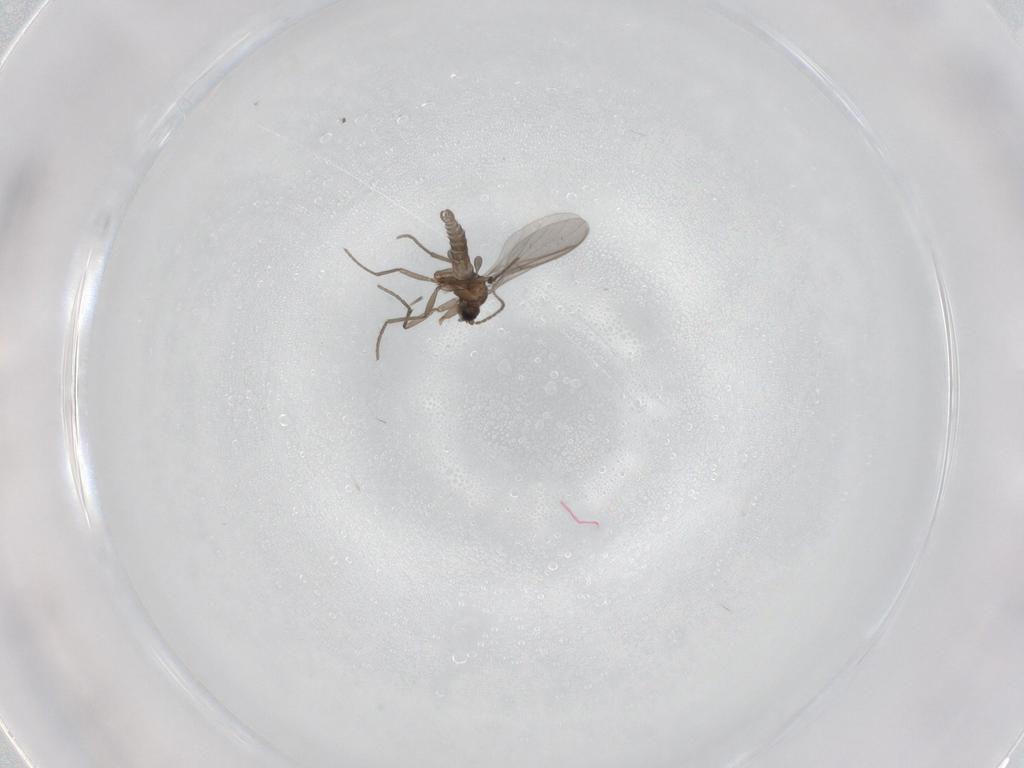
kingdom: Animalia
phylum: Arthropoda
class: Insecta
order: Diptera
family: Sciaridae
